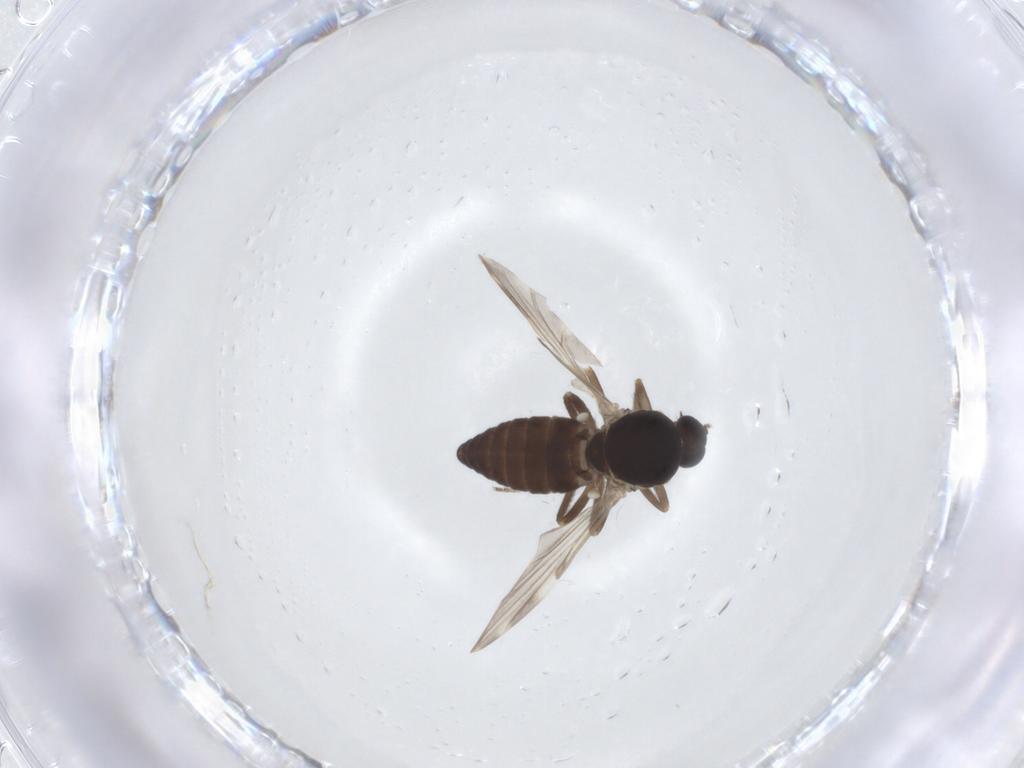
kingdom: Animalia
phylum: Arthropoda
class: Insecta
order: Diptera
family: Ceratopogonidae
